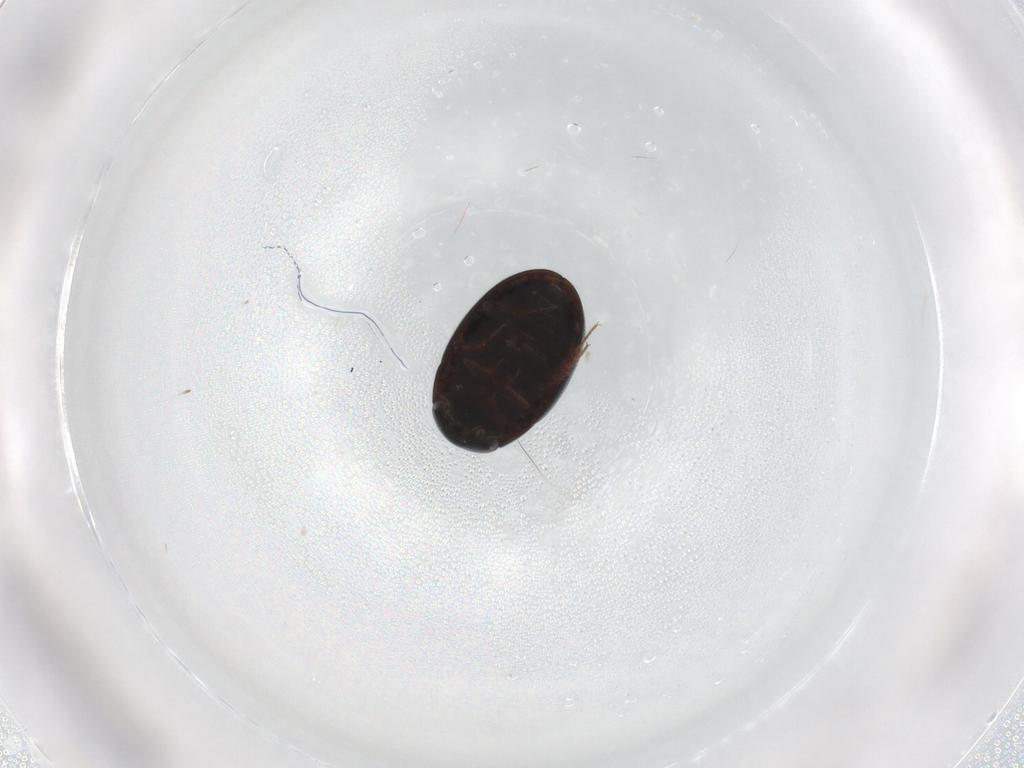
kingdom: Animalia
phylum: Arthropoda
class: Insecta
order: Coleoptera
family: Hydrophilidae
